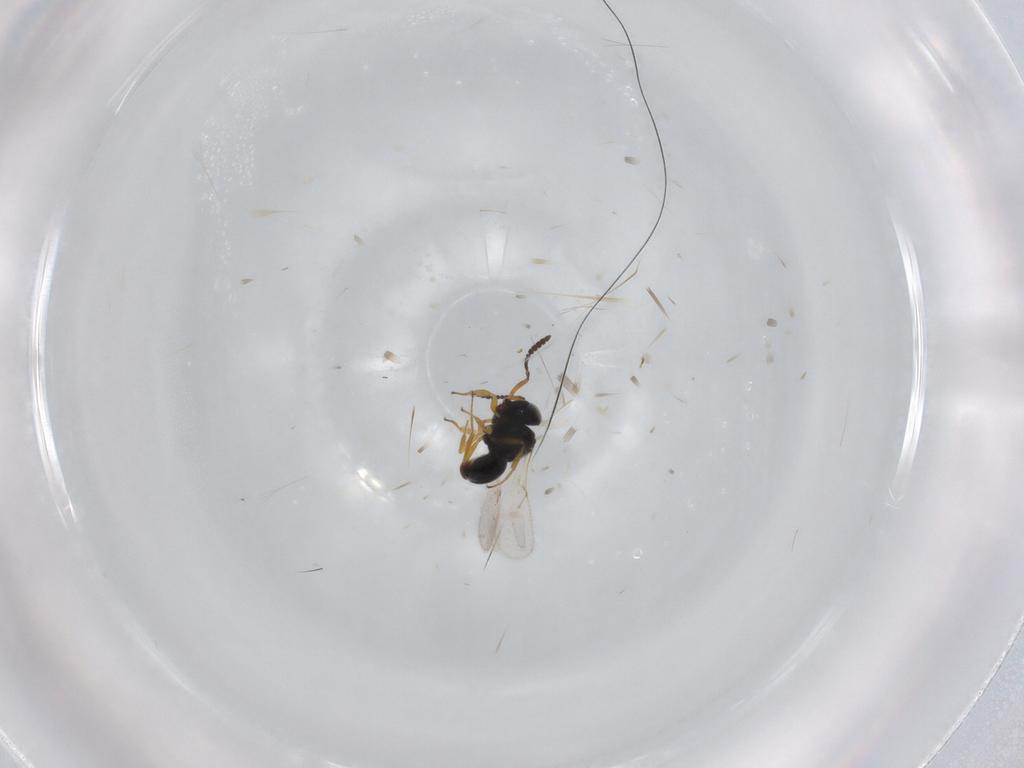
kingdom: Animalia
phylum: Arthropoda
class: Insecta
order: Hymenoptera
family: Scelionidae
